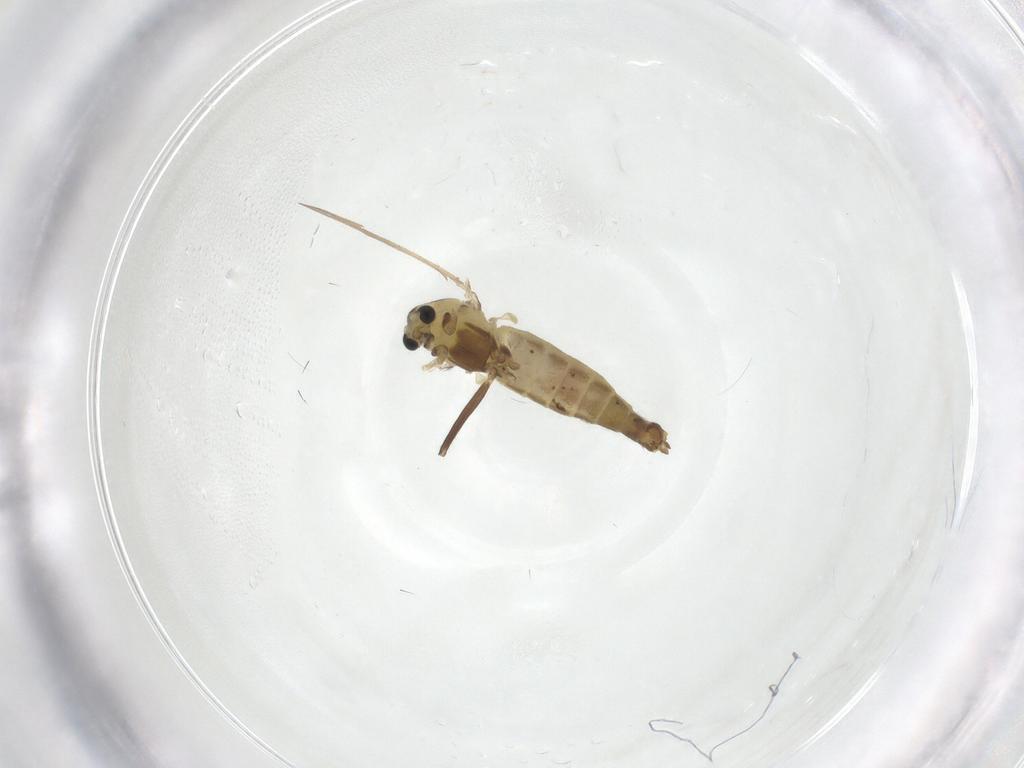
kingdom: Animalia
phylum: Arthropoda
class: Insecta
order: Diptera
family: Chironomidae
